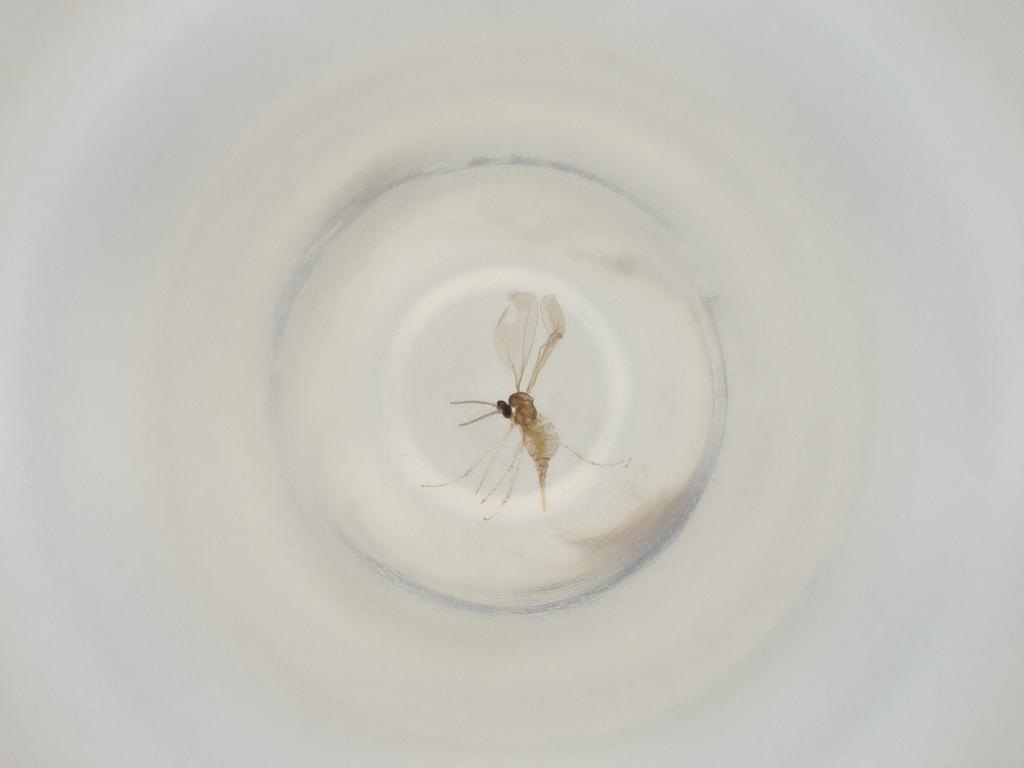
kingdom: Animalia
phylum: Arthropoda
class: Insecta
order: Diptera
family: Cecidomyiidae
